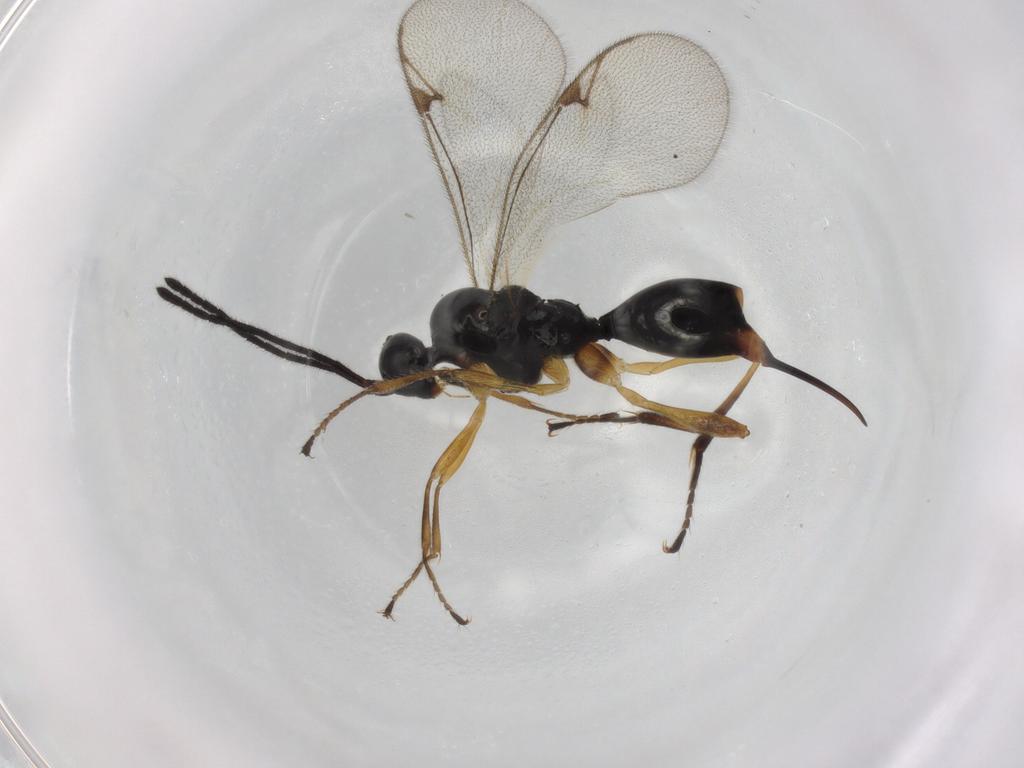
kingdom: Animalia
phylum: Arthropoda
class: Insecta
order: Hymenoptera
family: Proctotrupidae
